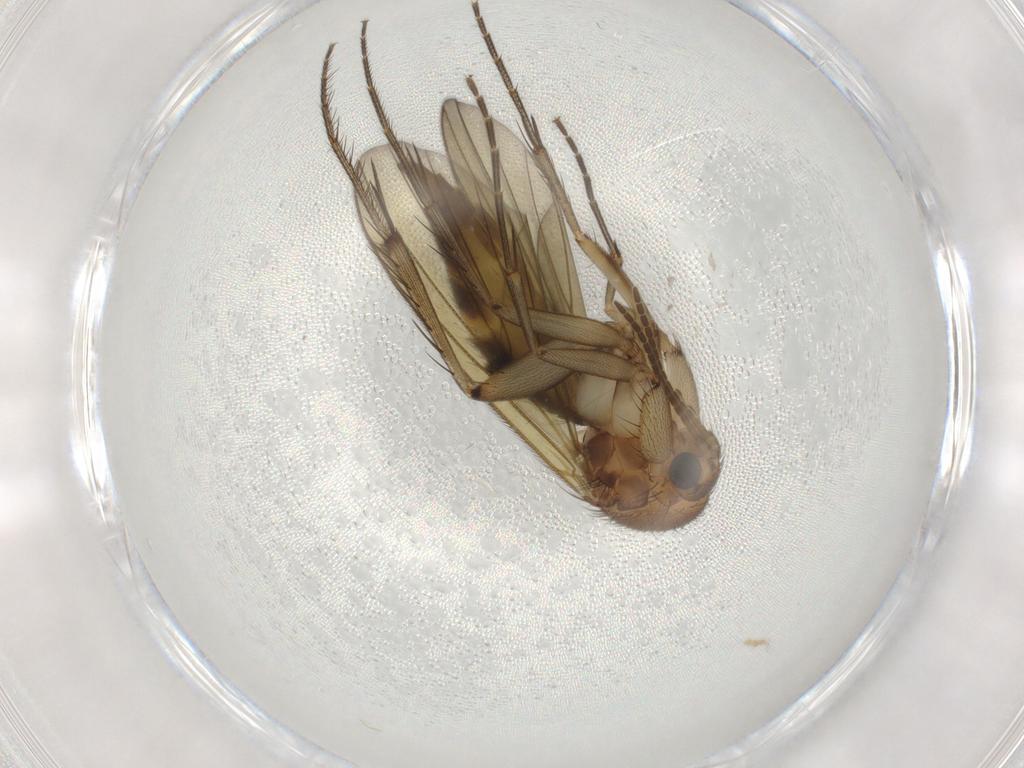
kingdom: Animalia
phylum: Arthropoda
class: Insecta
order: Diptera
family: Mycetophilidae
